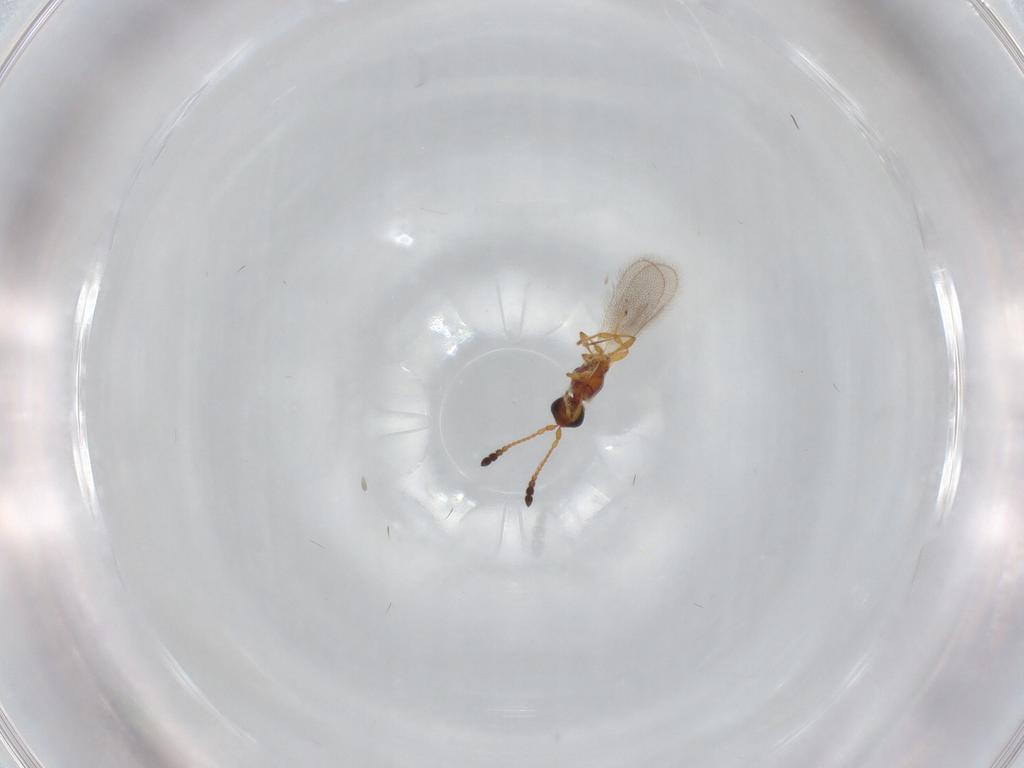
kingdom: Animalia
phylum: Arthropoda
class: Insecta
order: Hymenoptera
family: Diapriidae
